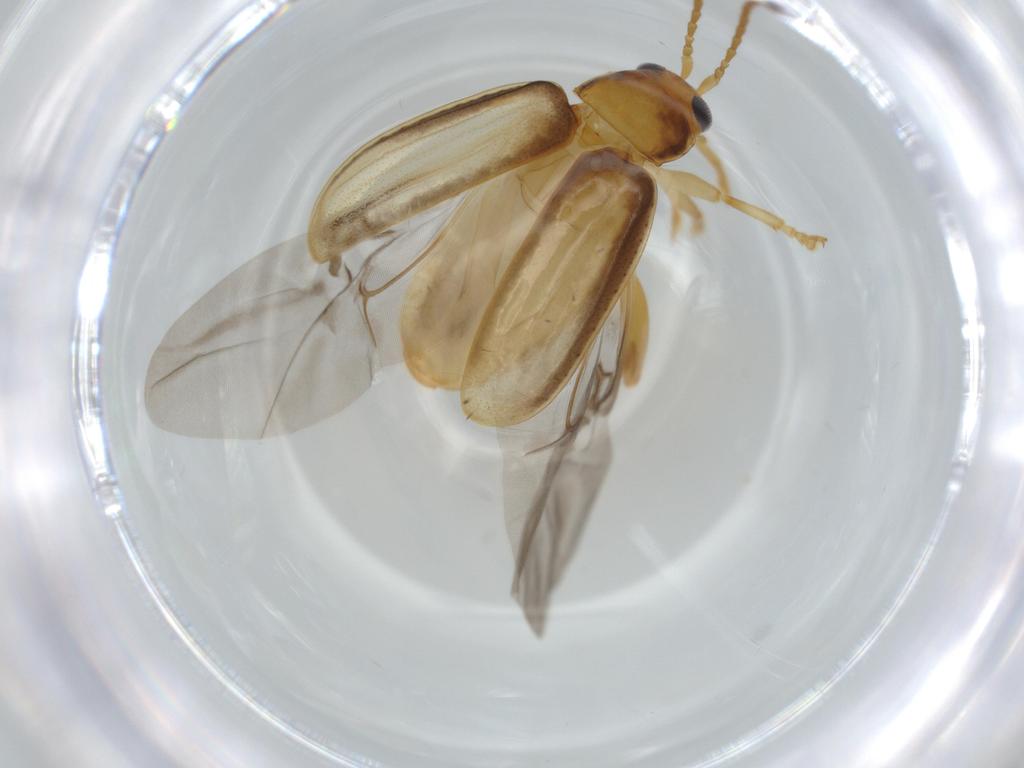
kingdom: Animalia
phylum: Arthropoda
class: Insecta
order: Coleoptera
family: Chrysomelidae
